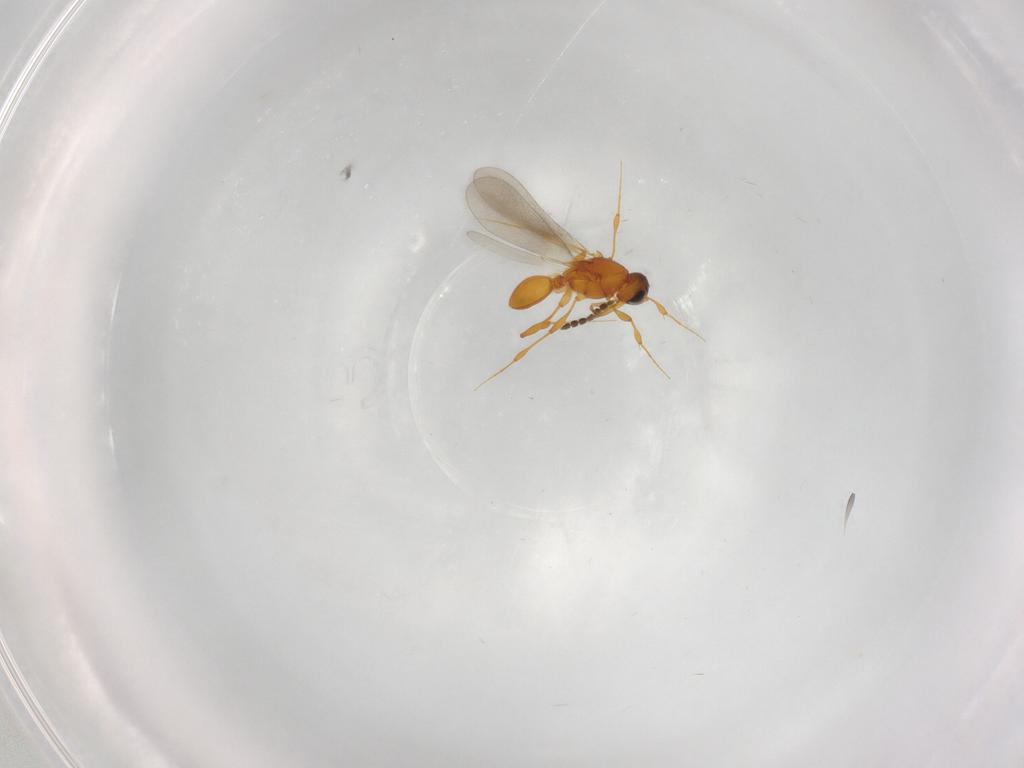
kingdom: Animalia
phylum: Arthropoda
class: Insecta
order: Hymenoptera
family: Platygastridae
